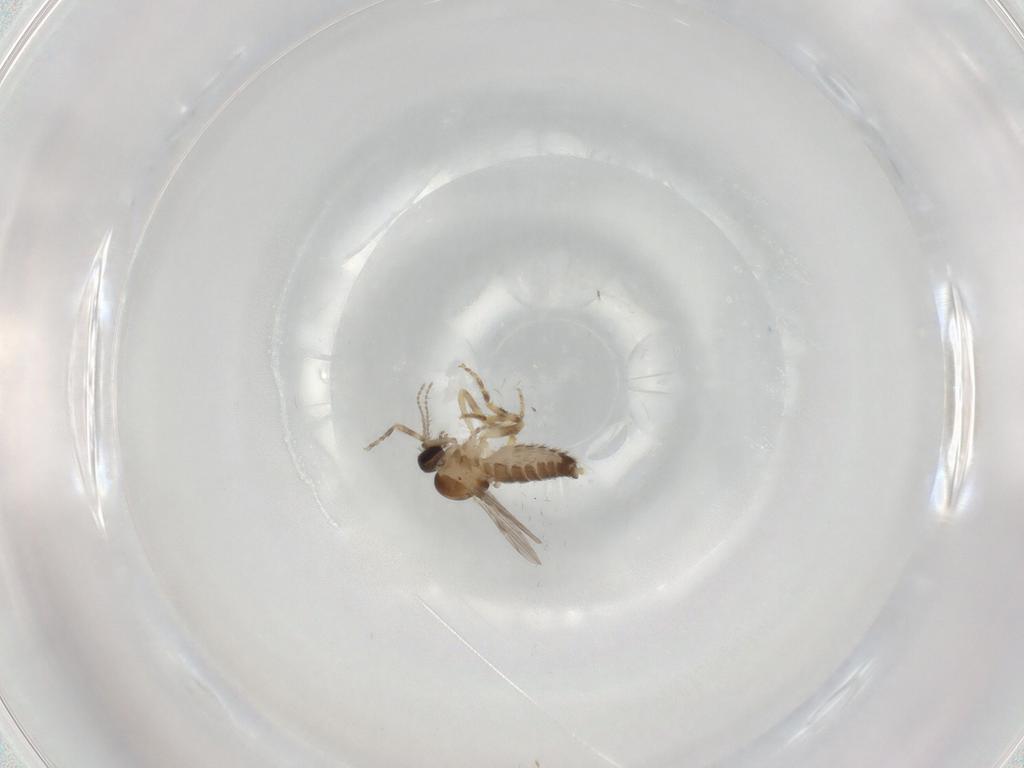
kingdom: Animalia
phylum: Arthropoda
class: Insecta
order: Diptera
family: Ceratopogonidae
